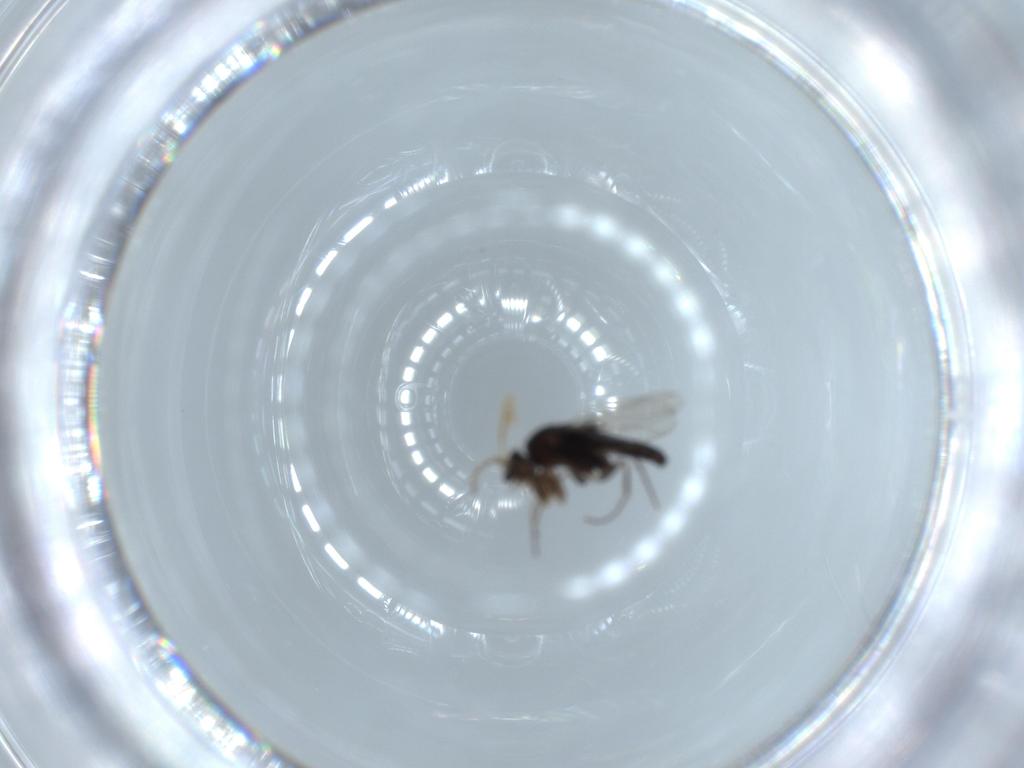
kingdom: Animalia
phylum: Arthropoda
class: Insecta
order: Diptera
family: Phoridae
